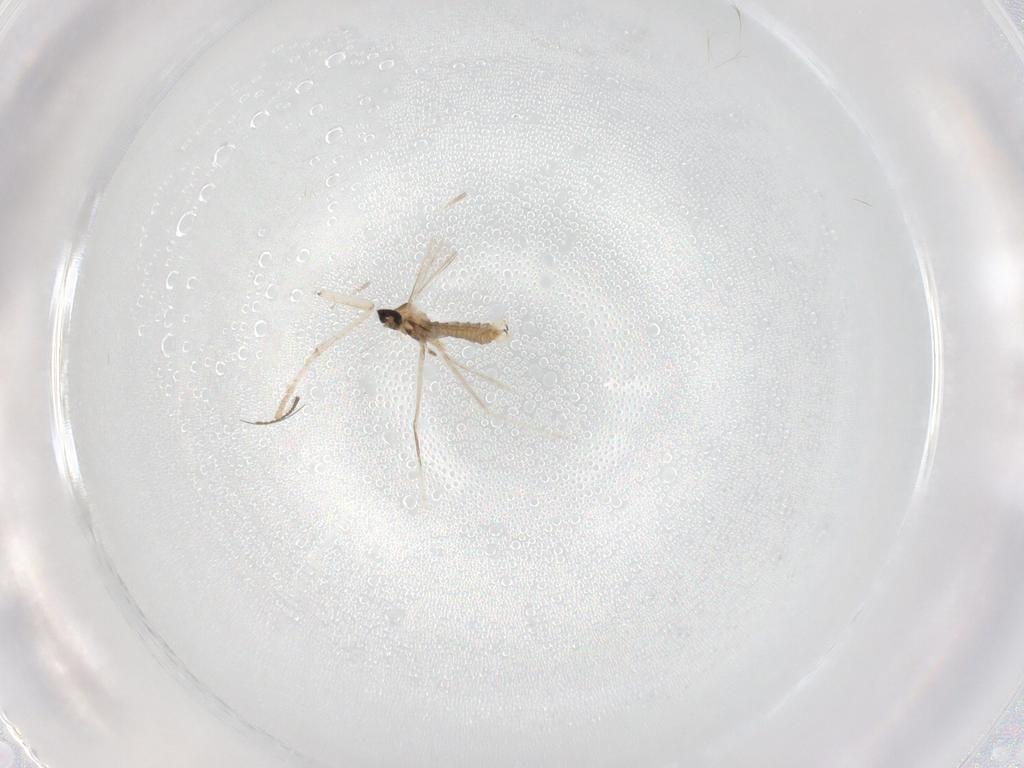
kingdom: Animalia
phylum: Arthropoda
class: Insecta
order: Diptera
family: Cecidomyiidae
